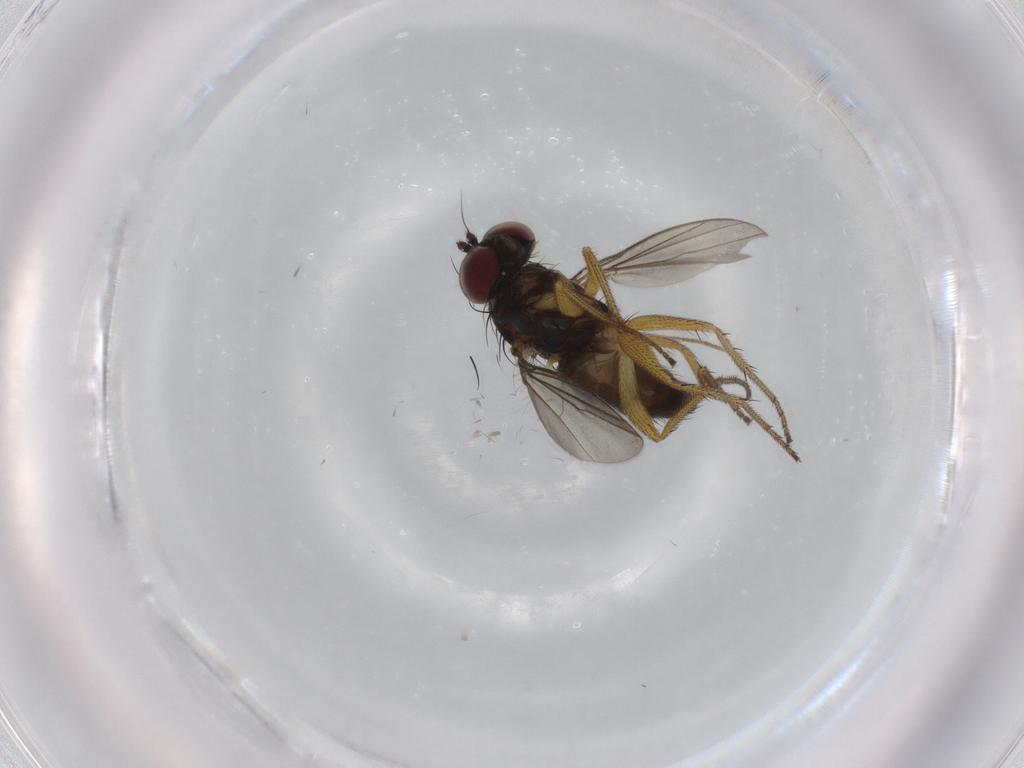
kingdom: Animalia
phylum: Arthropoda
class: Insecta
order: Diptera
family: Dolichopodidae
